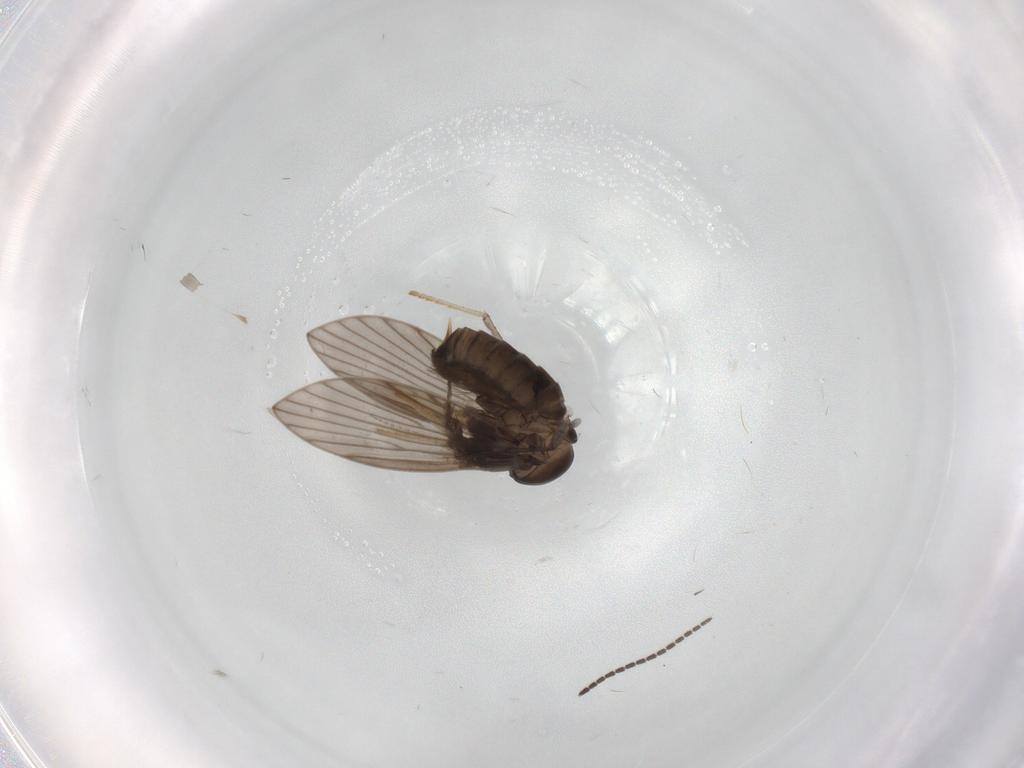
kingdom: Animalia
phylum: Arthropoda
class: Insecta
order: Diptera
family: Psychodidae
